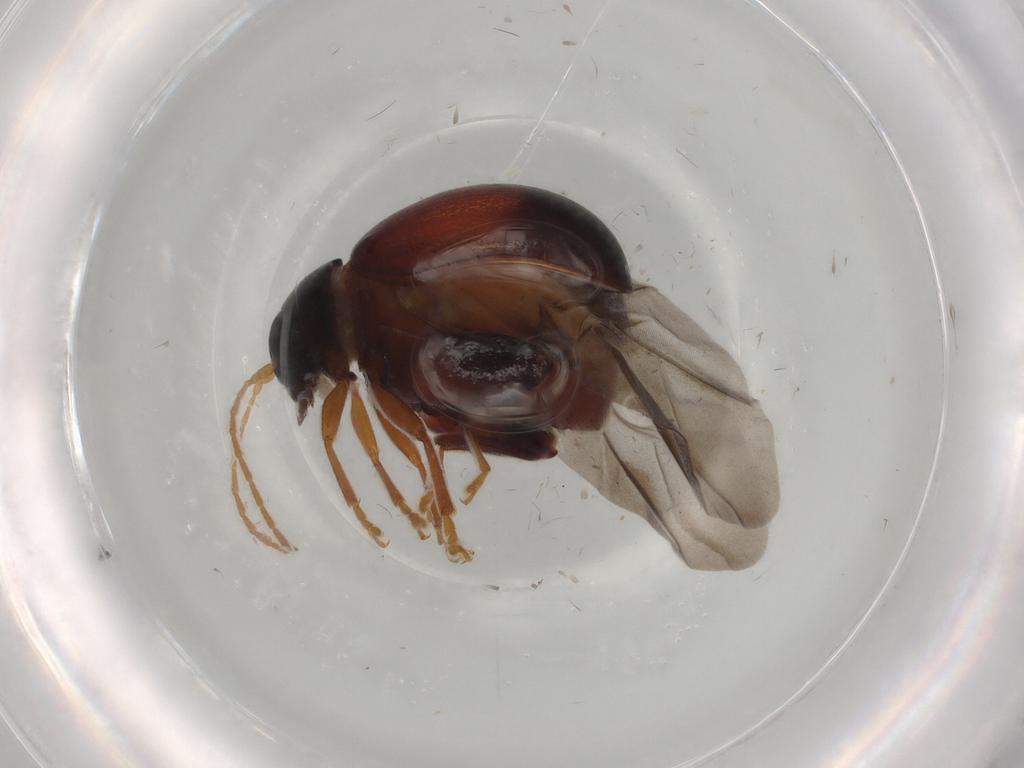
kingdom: Animalia
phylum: Arthropoda
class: Insecta
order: Coleoptera
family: Chrysomelidae
